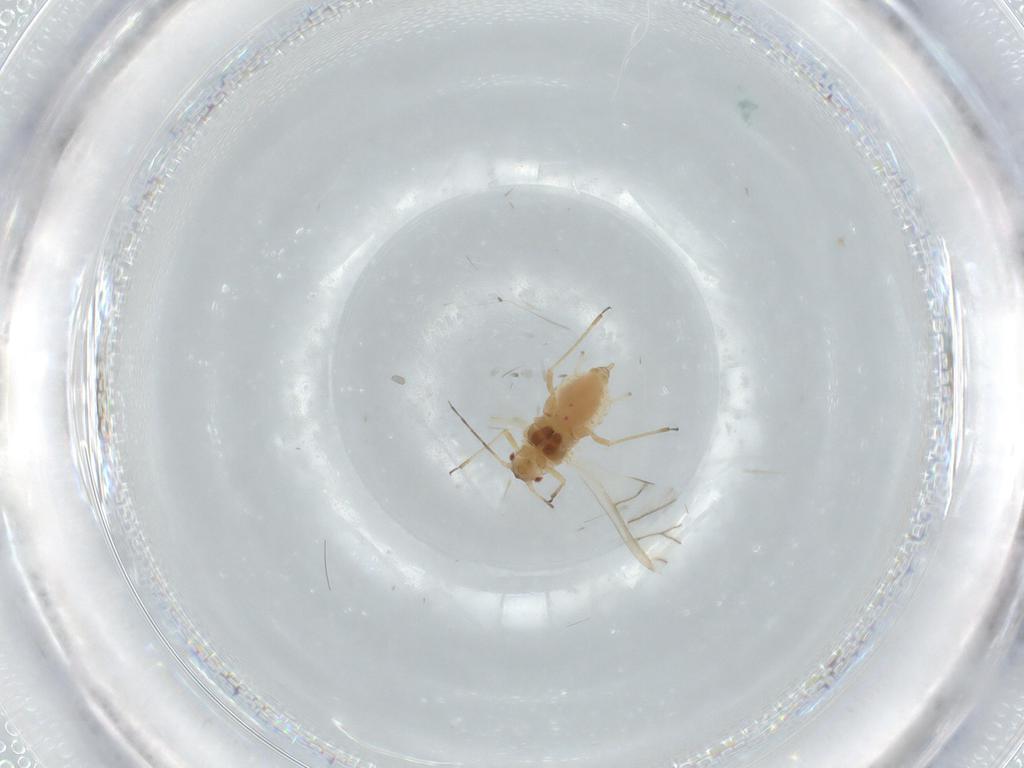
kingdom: Animalia
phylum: Arthropoda
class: Insecta
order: Hemiptera
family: Aphididae
